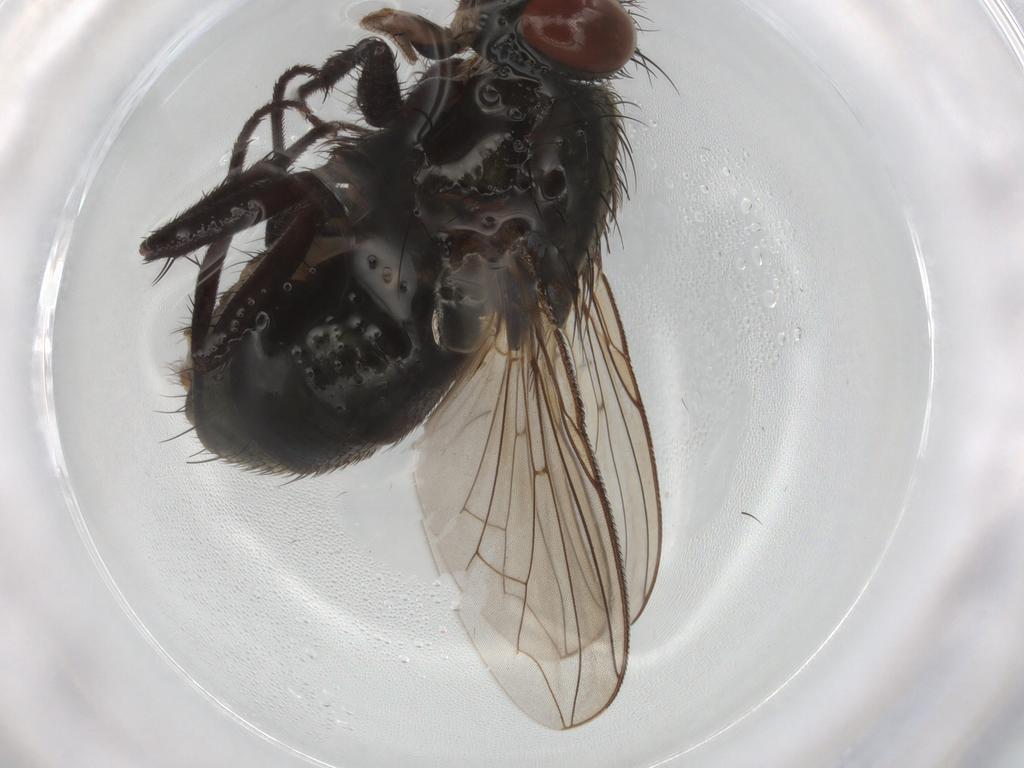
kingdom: Animalia
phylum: Arthropoda
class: Insecta
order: Diptera
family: Sarcophagidae
